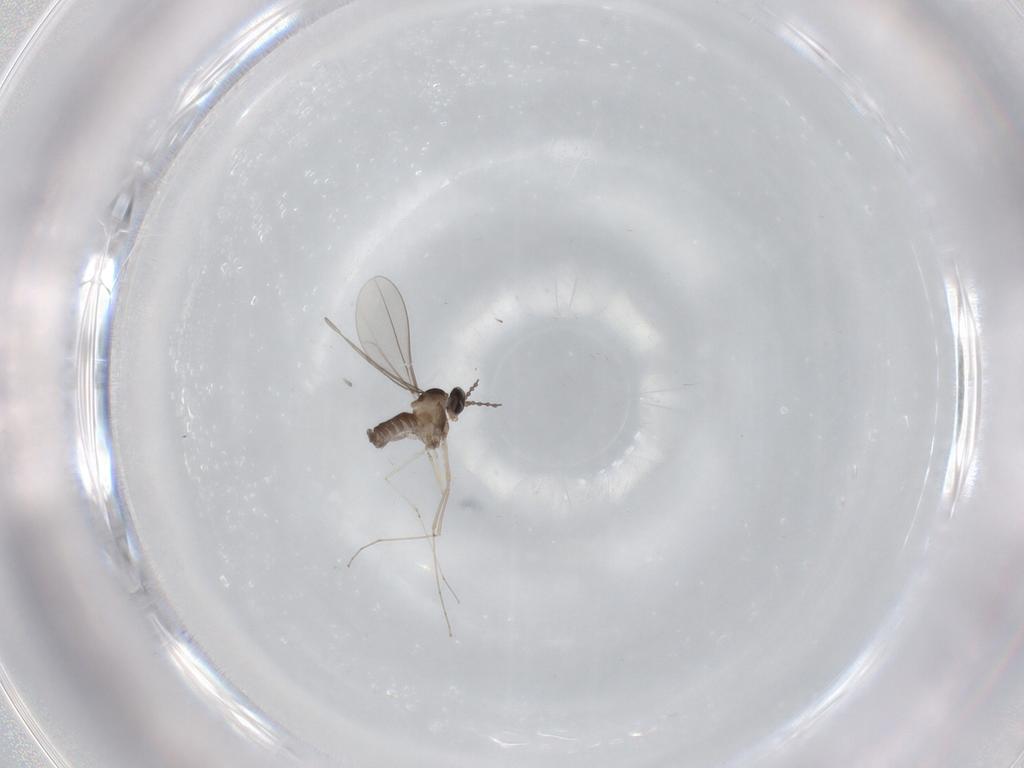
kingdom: Animalia
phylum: Arthropoda
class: Insecta
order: Diptera
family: Cecidomyiidae
